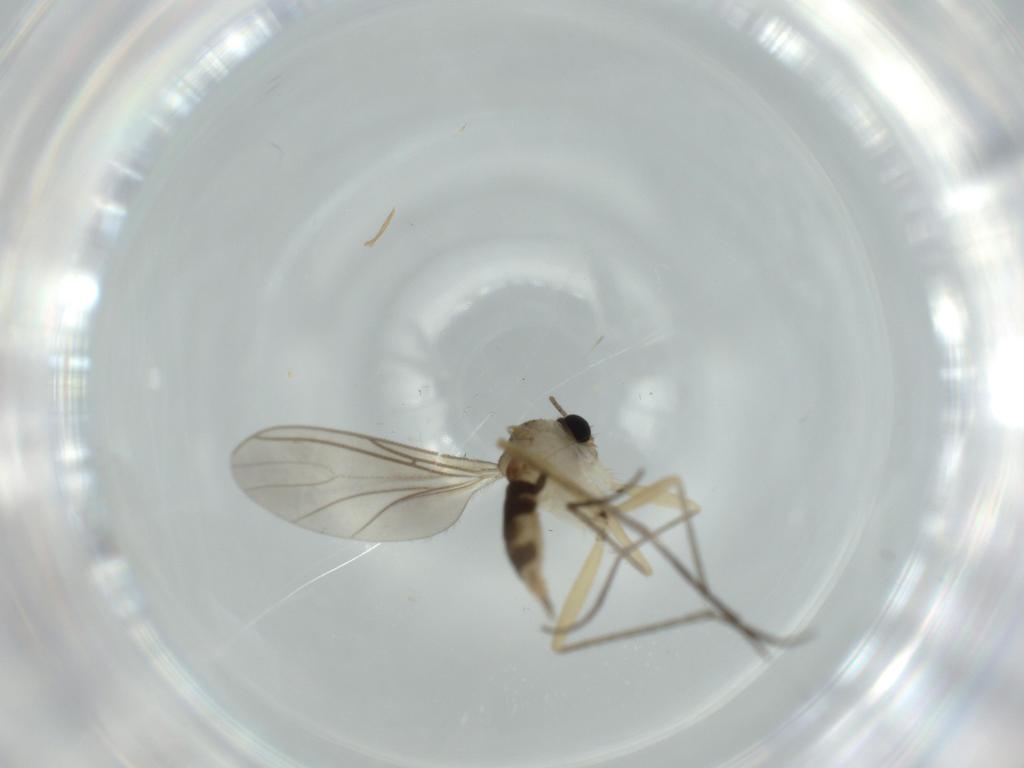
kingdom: Animalia
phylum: Arthropoda
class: Insecta
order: Diptera
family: Sciaridae
